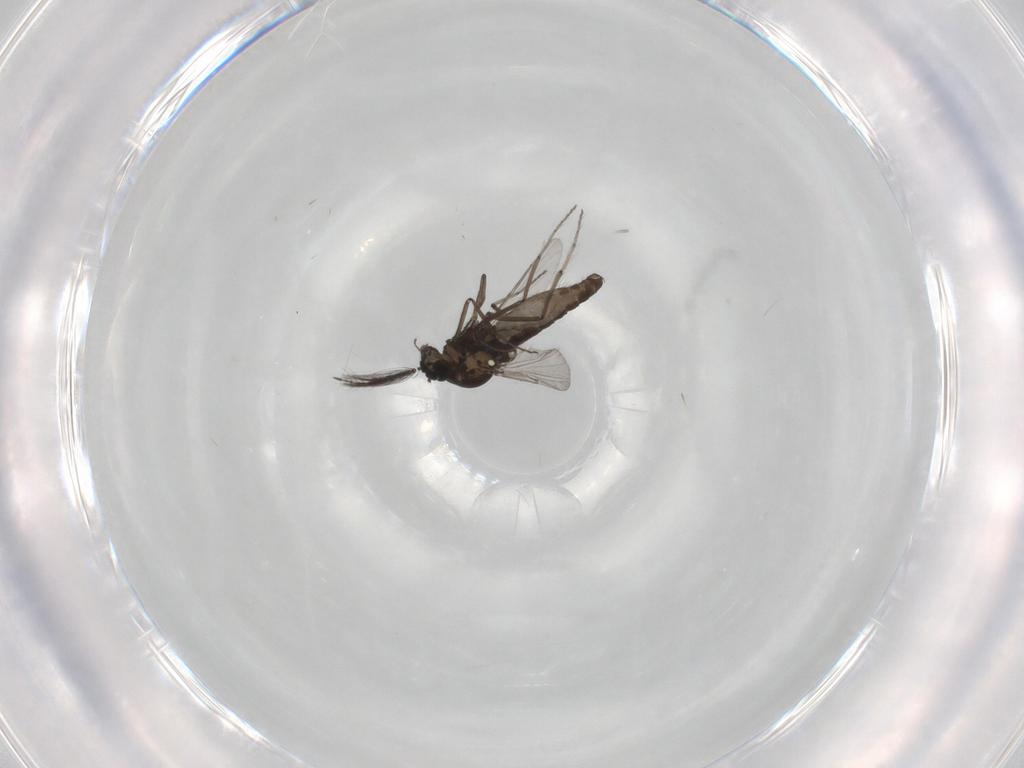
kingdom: Animalia
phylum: Arthropoda
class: Insecta
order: Diptera
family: Ceratopogonidae
